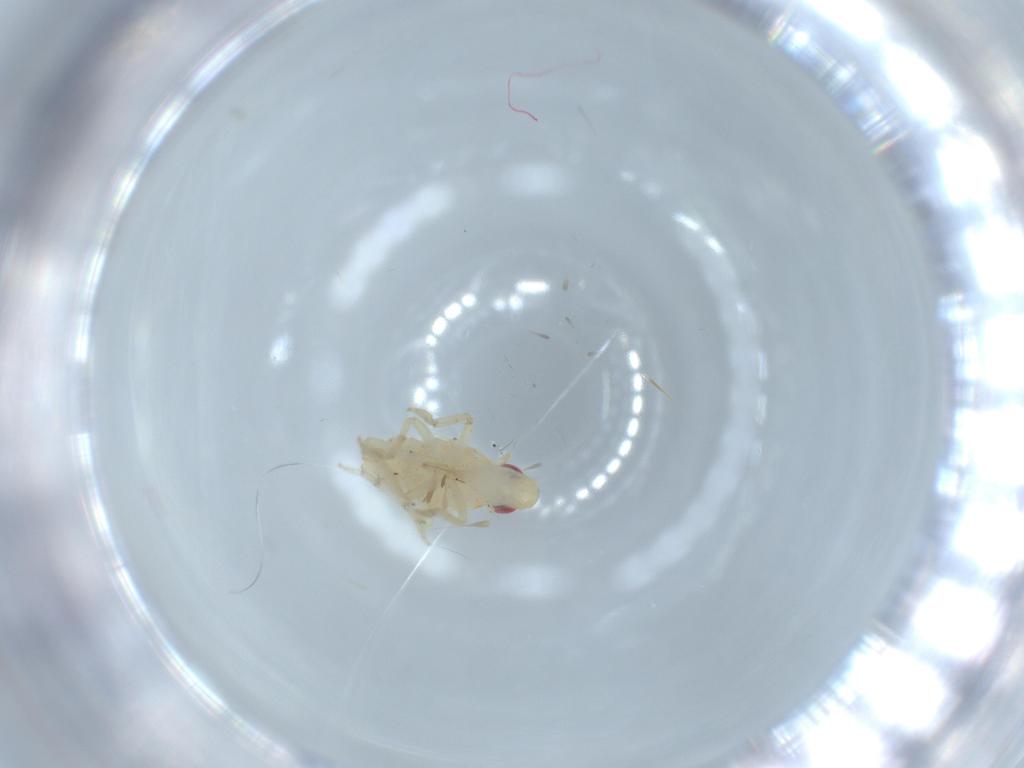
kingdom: Animalia
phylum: Arthropoda
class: Insecta
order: Hemiptera
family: Tropiduchidae
